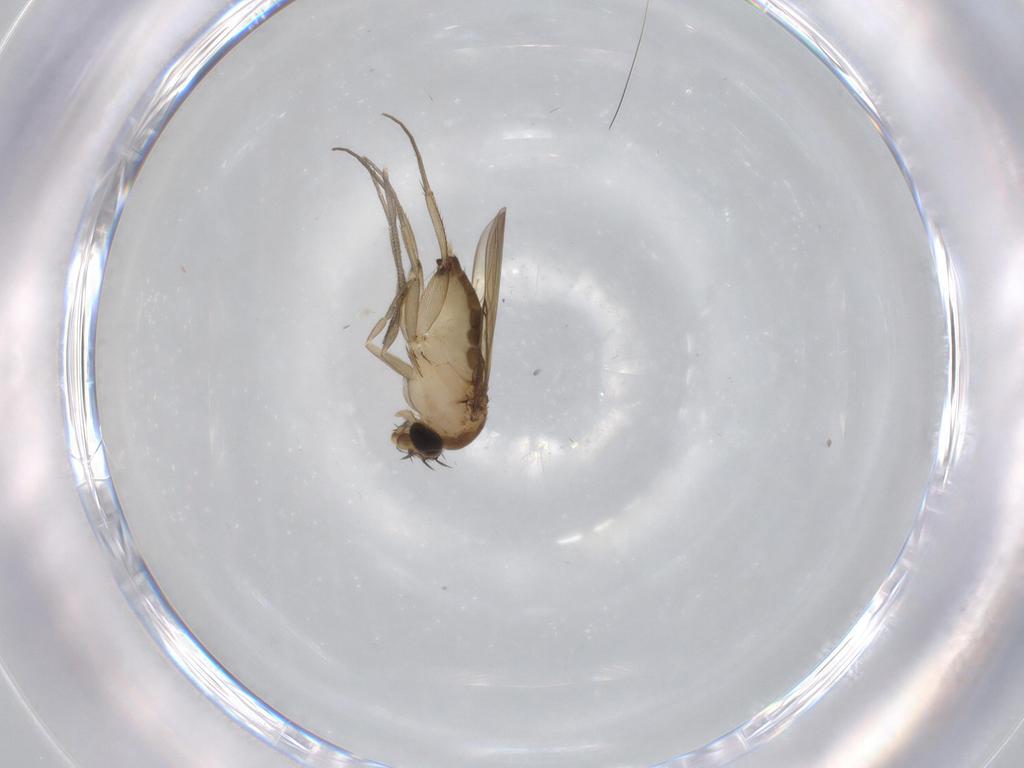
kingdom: Animalia
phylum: Arthropoda
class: Insecta
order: Diptera
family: Sciaridae
